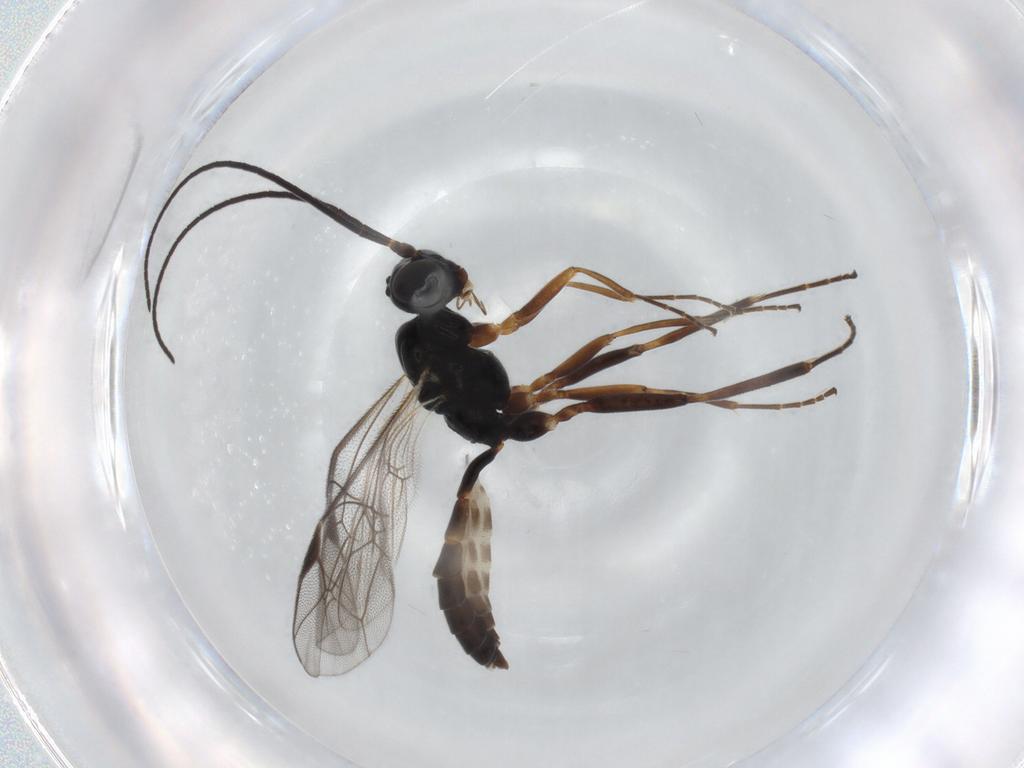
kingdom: Animalia
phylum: Arthropoda
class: Insecta
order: Hymenoptera
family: Ichneumonidae
